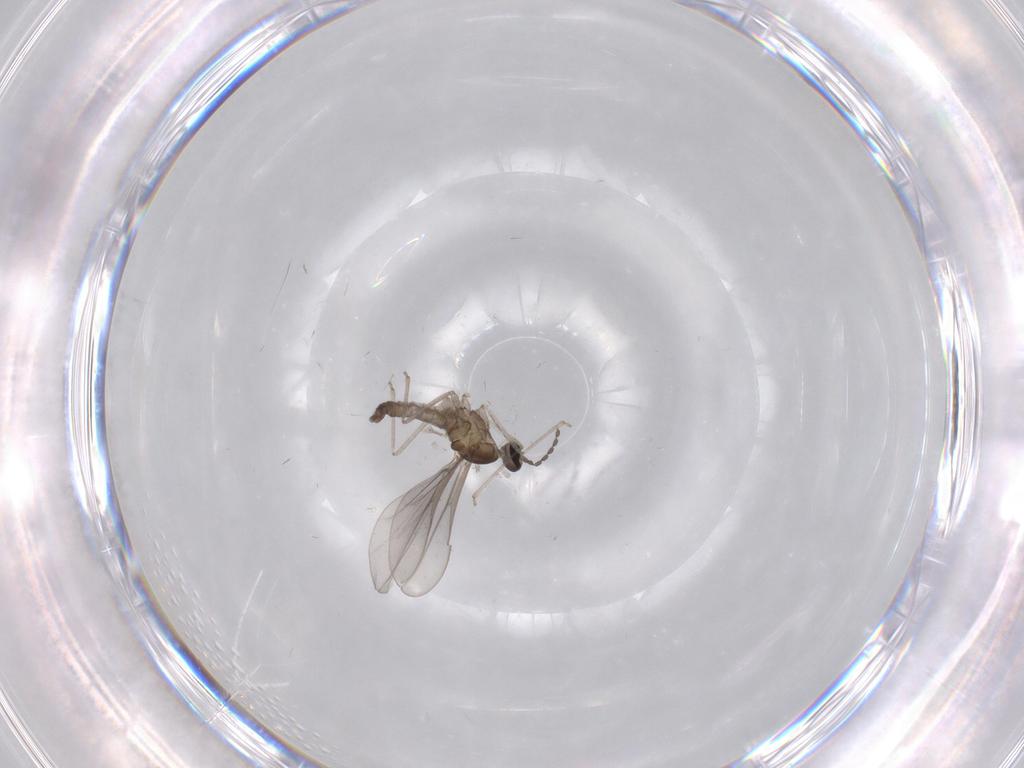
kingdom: Animalia
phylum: Arthropoda
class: Insecta
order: Diptera
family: Cecidomyiidae
